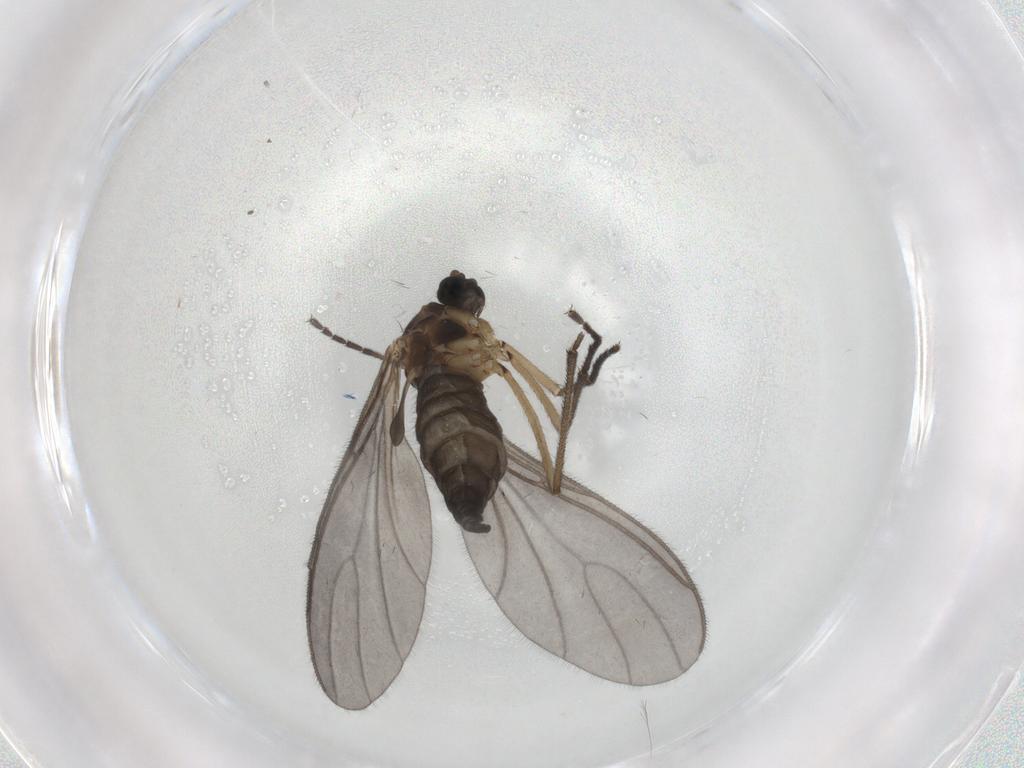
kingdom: Animalia
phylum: Arthropoda
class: Insecta
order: Diptera
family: Sciaridae
